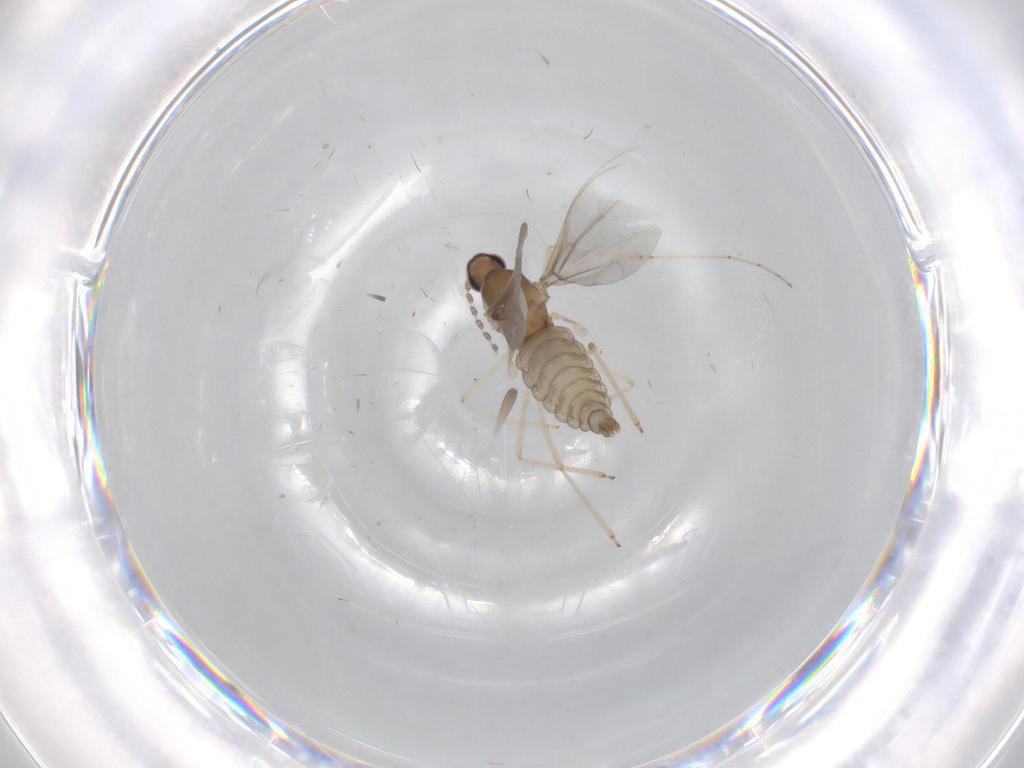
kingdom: Animalia
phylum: Arthropoda
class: Insecta
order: Diptera
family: Cecidomyiidae
